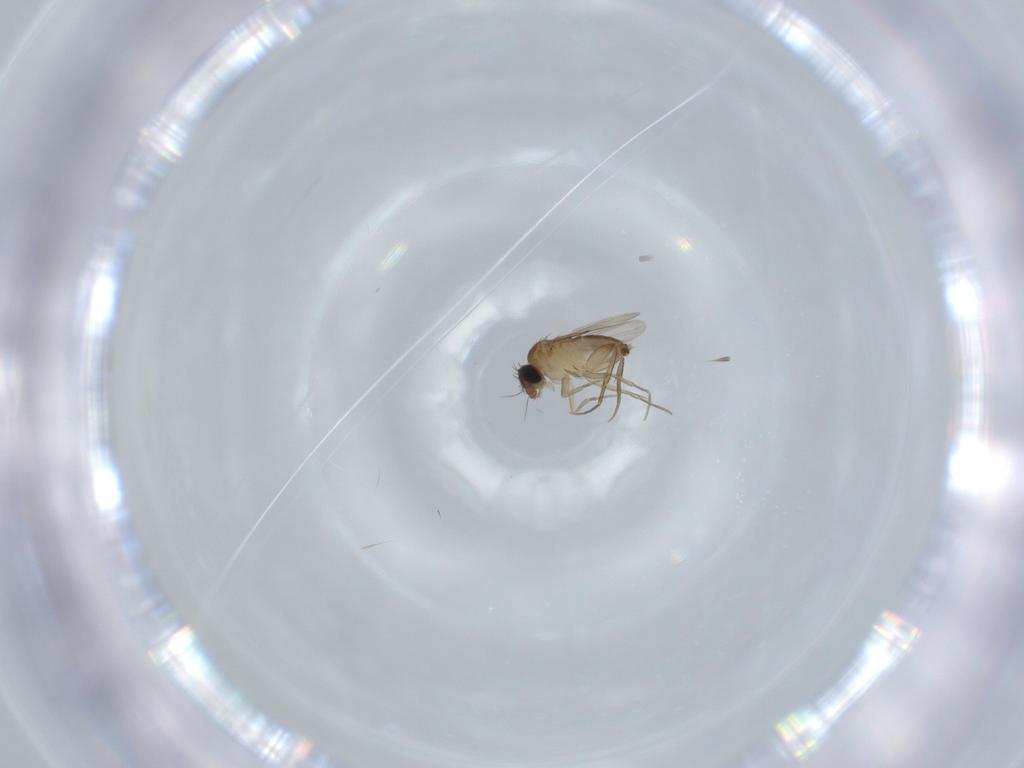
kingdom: Animalia
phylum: Arthropoda
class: Insecta
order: Diptera
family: Phoridae
